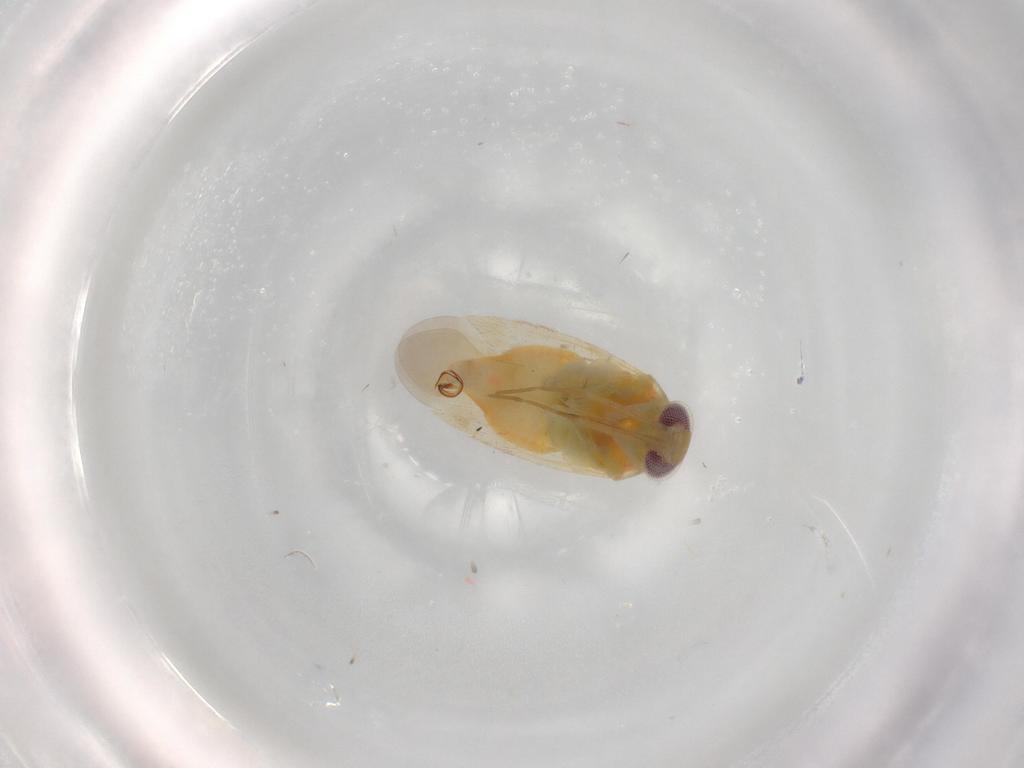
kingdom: Animalia
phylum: Arthropoda
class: Insecta
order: Hemiptera
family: Miridae
